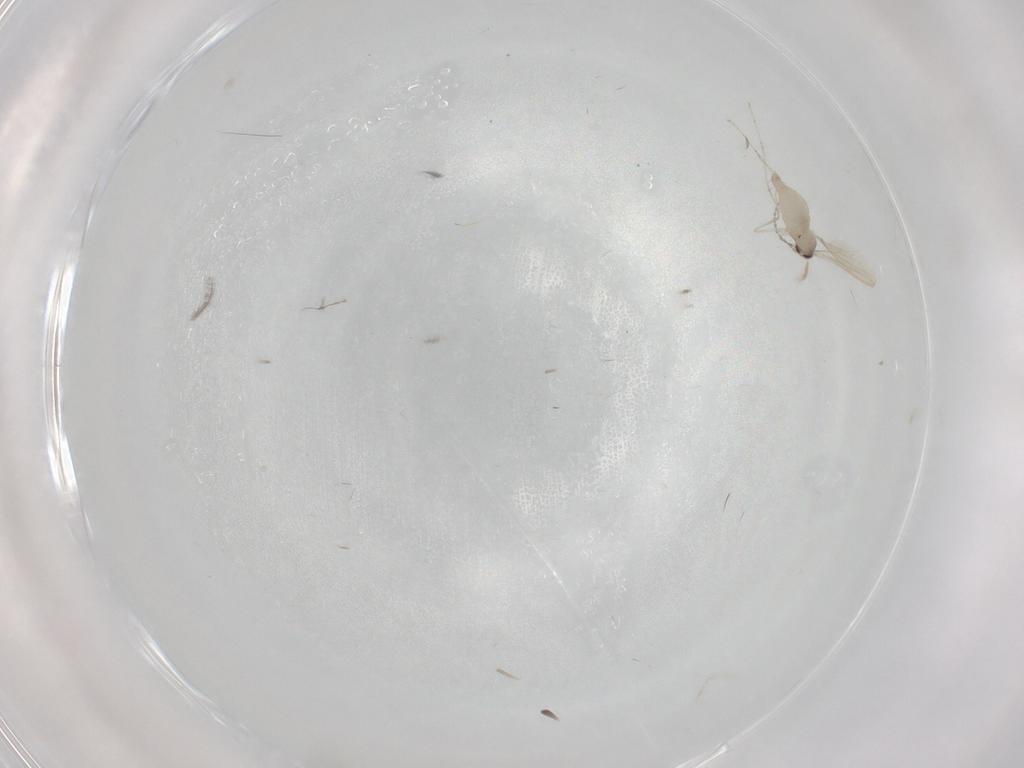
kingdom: Animalia
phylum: Arthropoda
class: Insecta
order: Diptera
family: Cecidomyiidae
